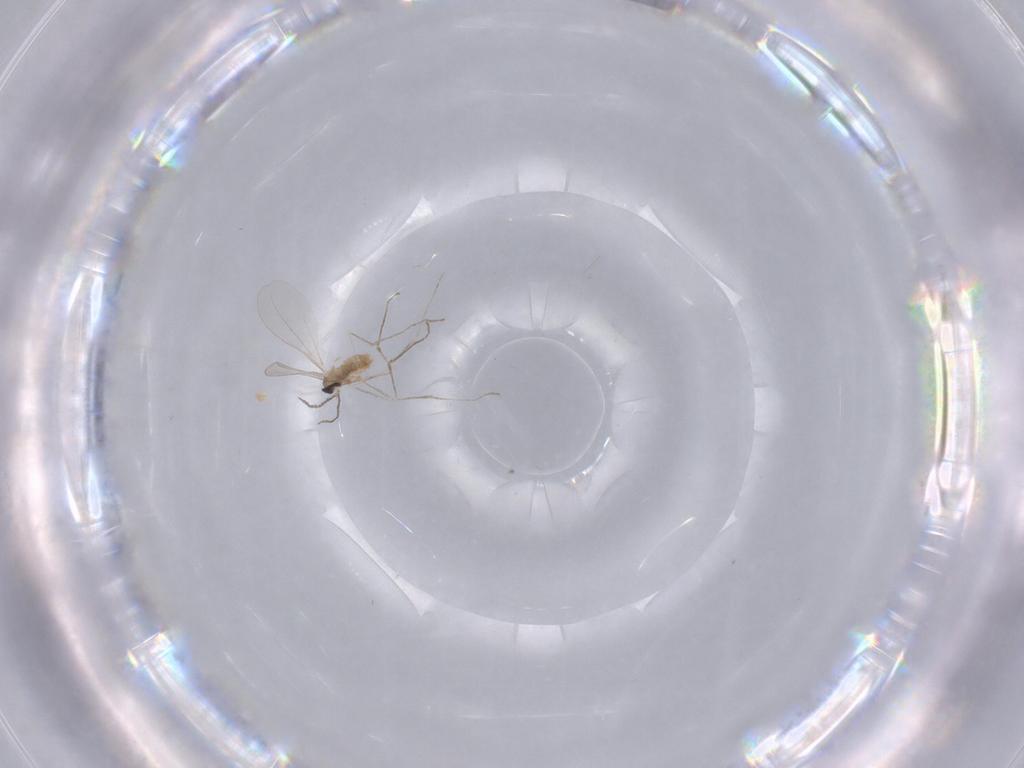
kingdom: Animalia
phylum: Arthropoda
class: Insecta
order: Diptera
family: Cecidomyiidae
